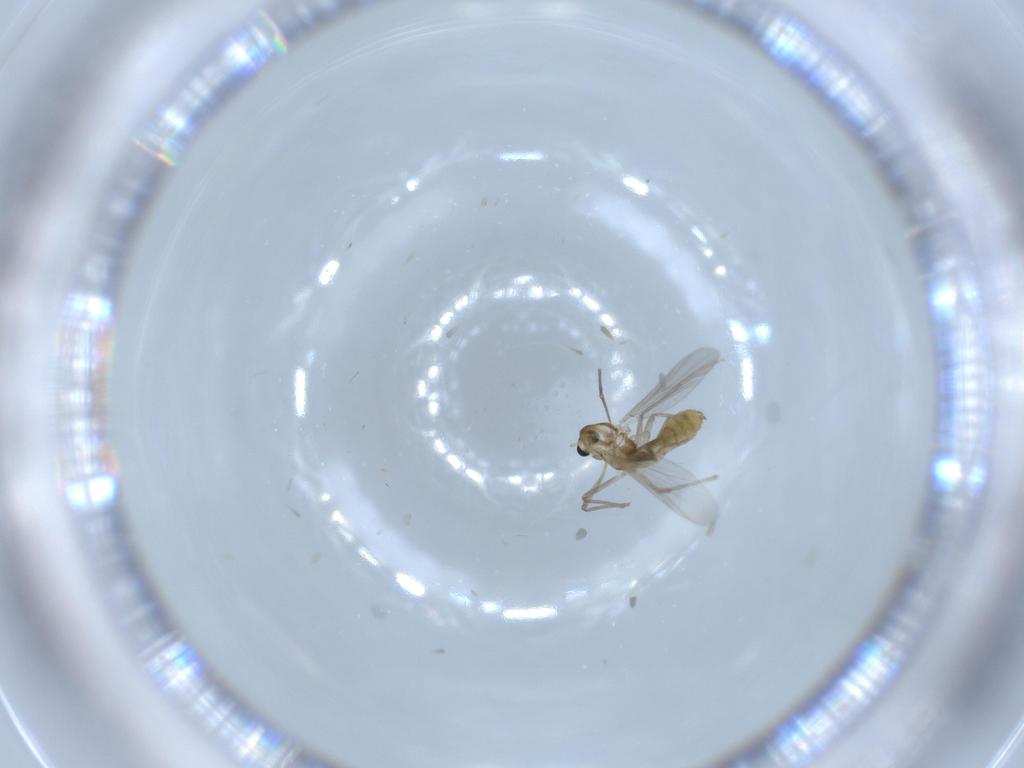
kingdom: Animalia
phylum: Arthropoda
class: Insecta
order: Diptera
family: Chironomidae
